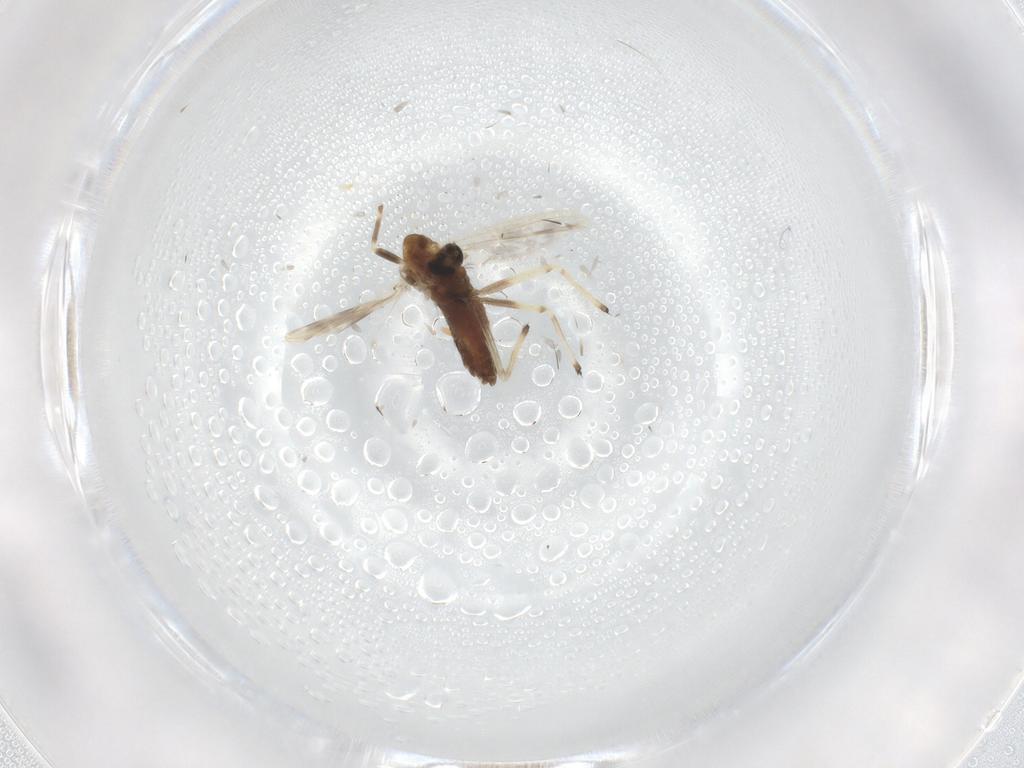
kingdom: Animalia
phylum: Arthropoda
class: Insecta
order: Diptera
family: Chironomidae
